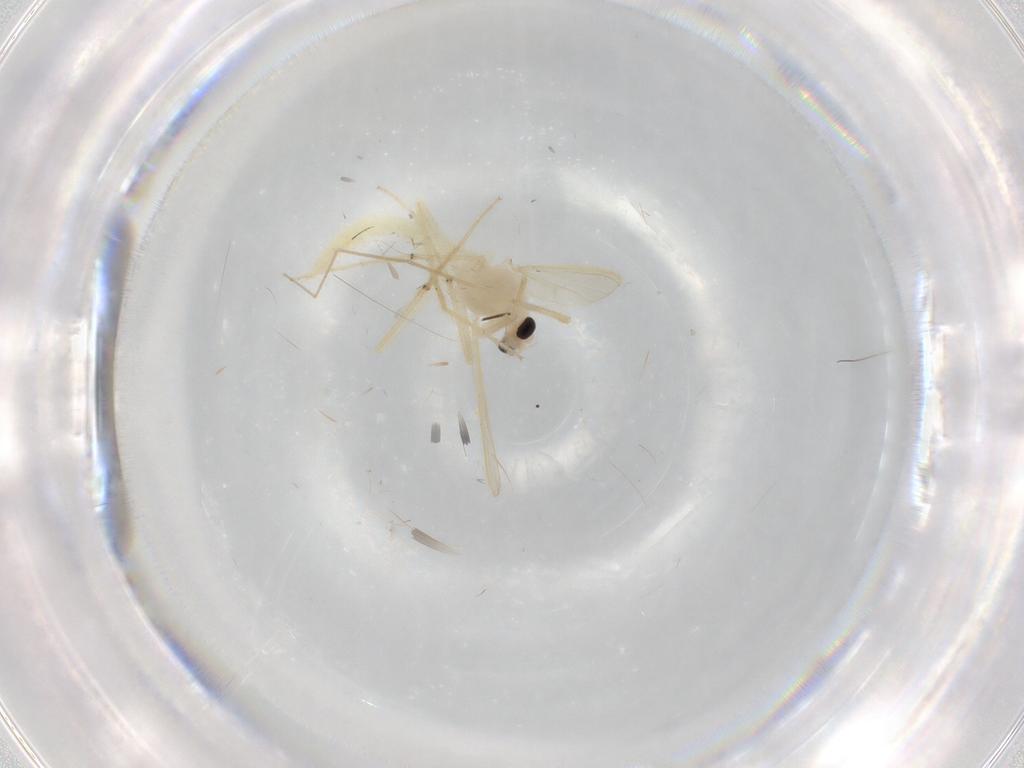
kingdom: Animalia
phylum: Arthropoda
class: Insecta
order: Diptera
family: Chironomidae
